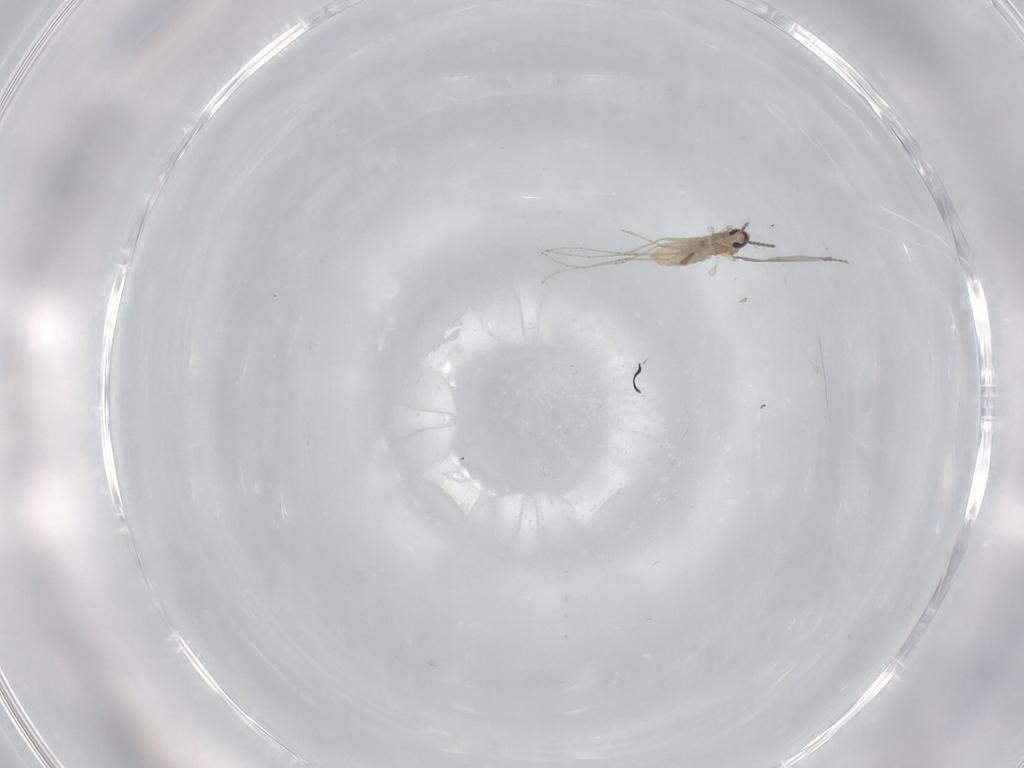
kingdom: Animalia
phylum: Arthropoda
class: Insecta
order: Diptera
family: Cecidomyiidae
